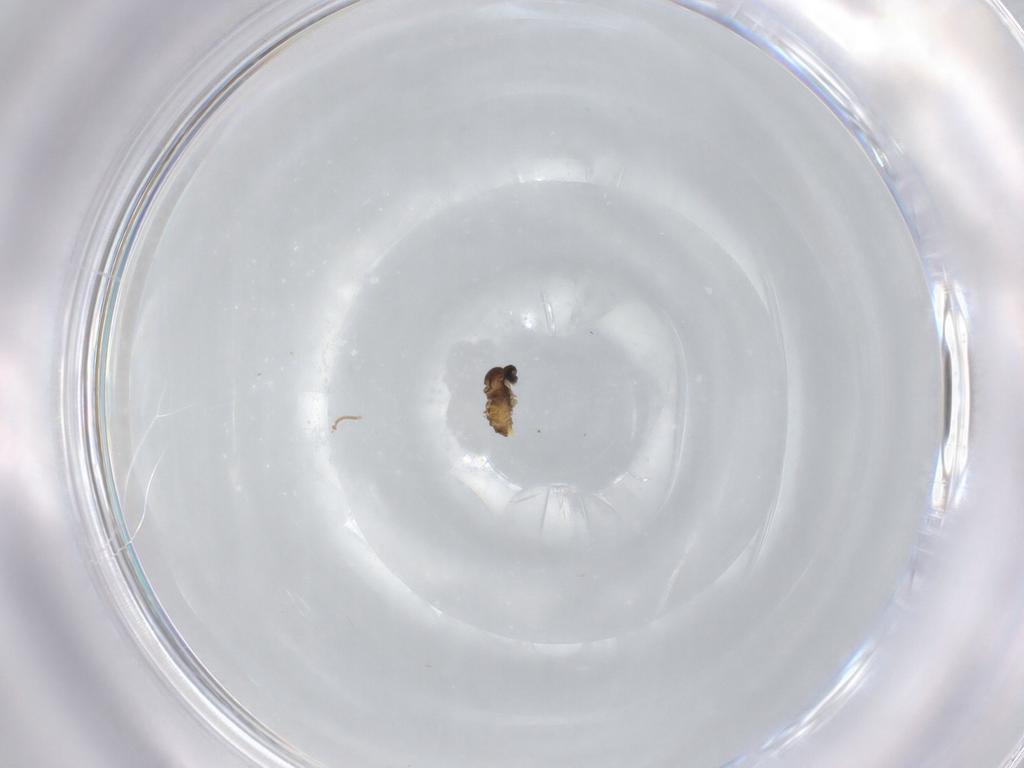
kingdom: Animalia
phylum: Arthropoda
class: Insecta
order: Diptera
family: Cecidomyiidae
